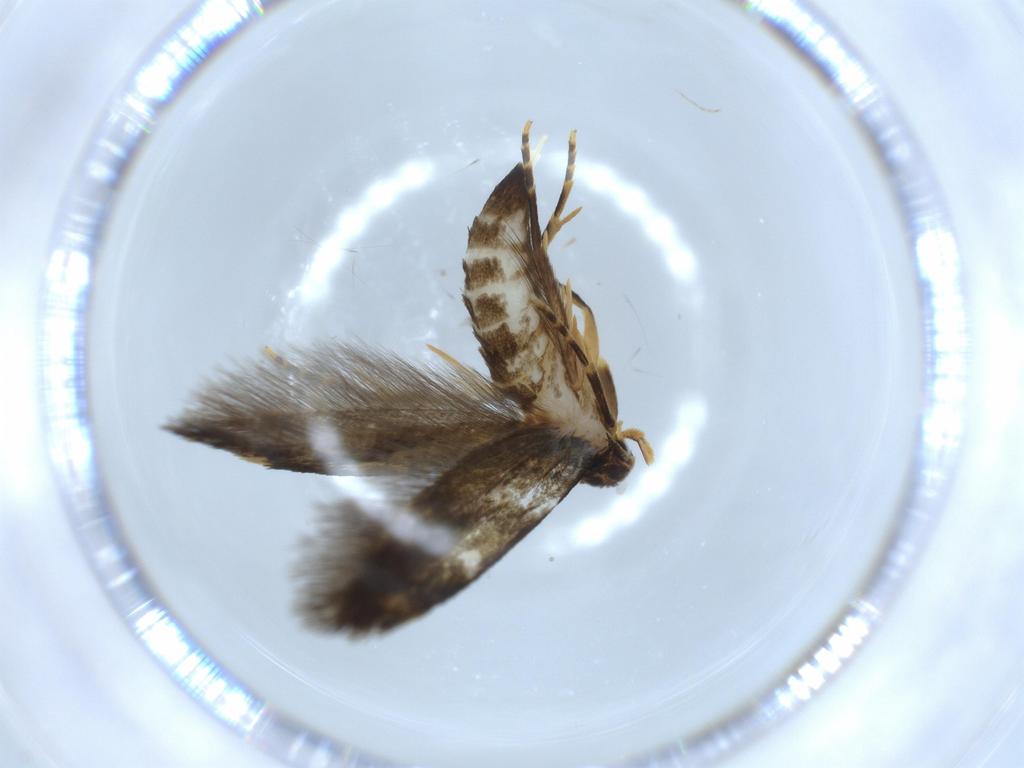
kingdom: Animalia
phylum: Arthropoda
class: Insecta
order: Lepidoptera
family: Tineidae
